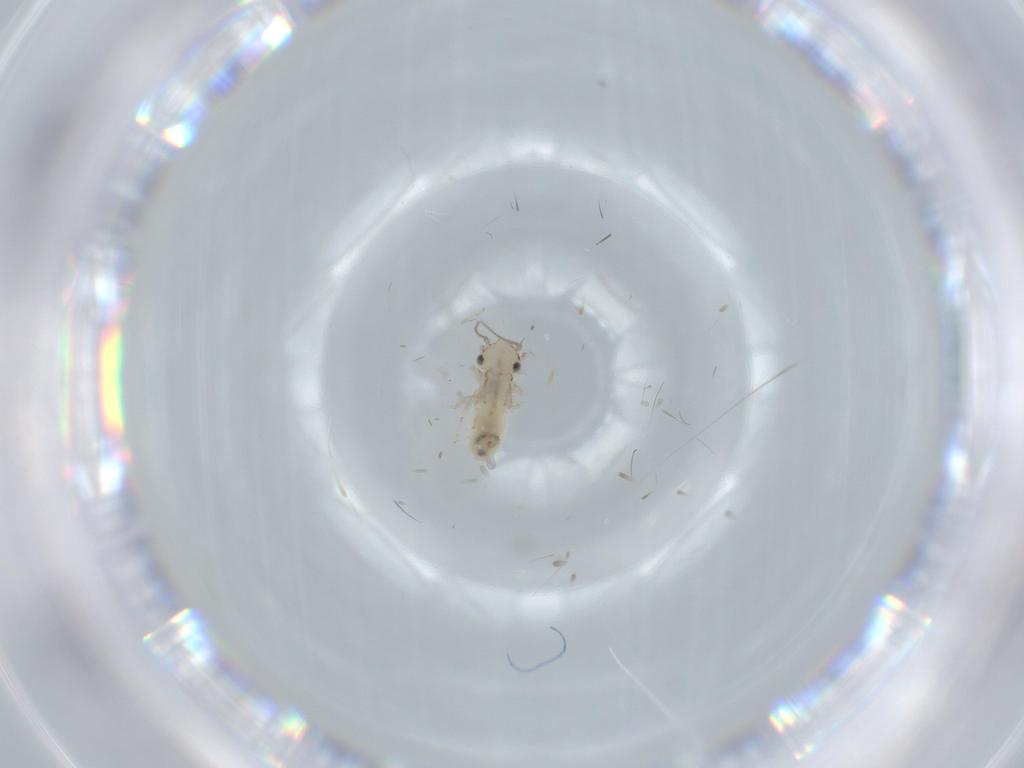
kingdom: Animalia
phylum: Arthropoda
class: Insecta
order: Psocodea
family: Lepidopsocidae
